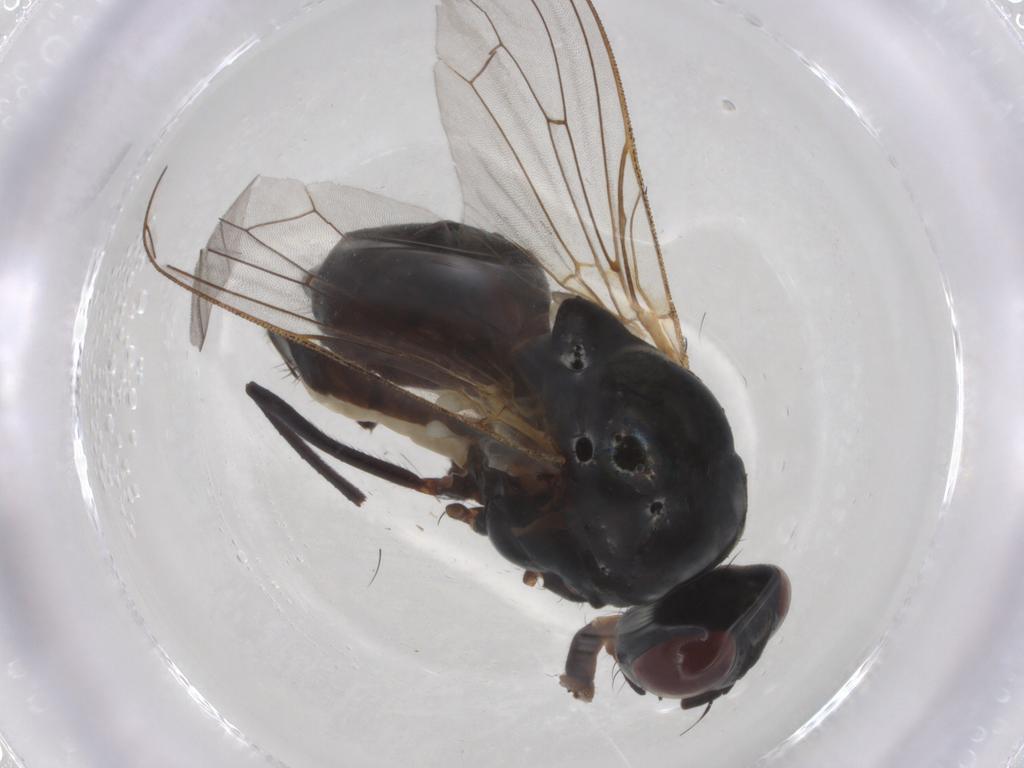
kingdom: Animalia
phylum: Arthropoda
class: Insecta
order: Diptera
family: Anthomyiidae
